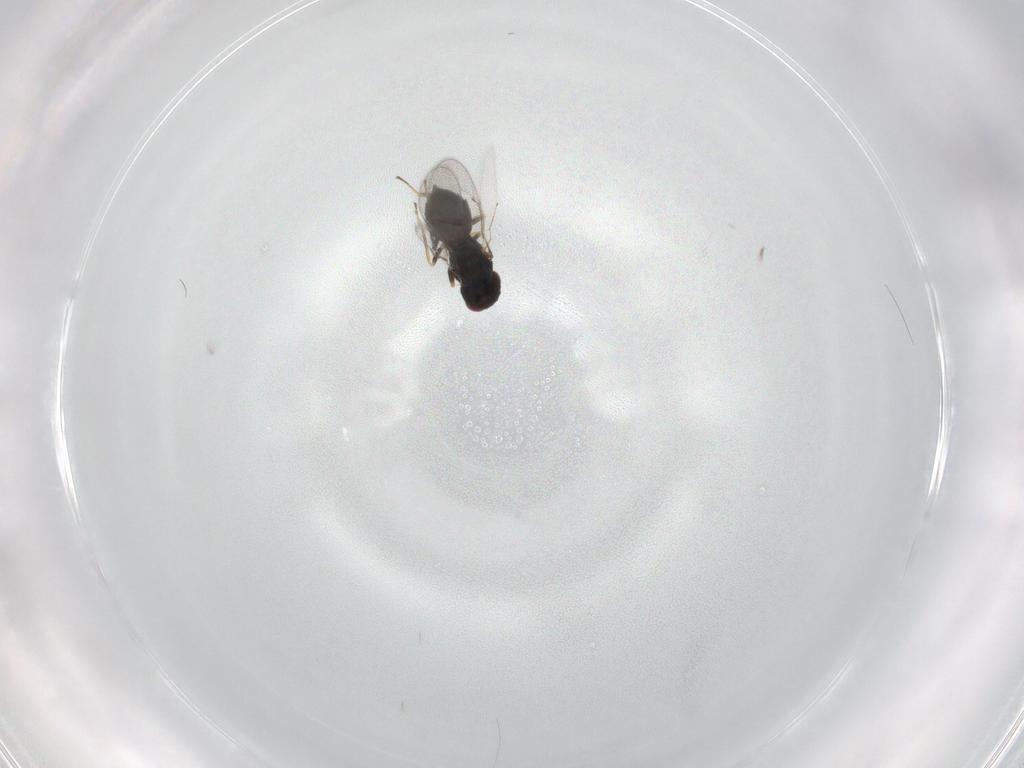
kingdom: Animalia
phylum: Arthropoda
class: Insecta
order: Hymenoptera
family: Eulophidae
